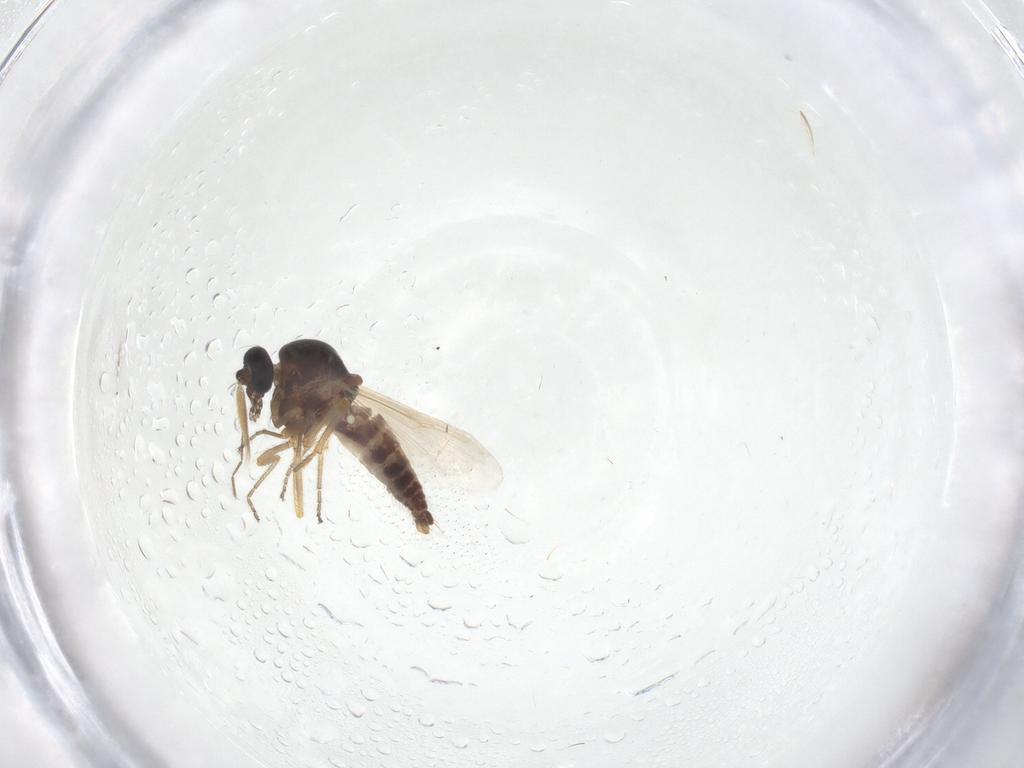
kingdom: Animalia
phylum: Arthropoda
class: Insecta
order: Diptera
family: Ceratopogonidae
